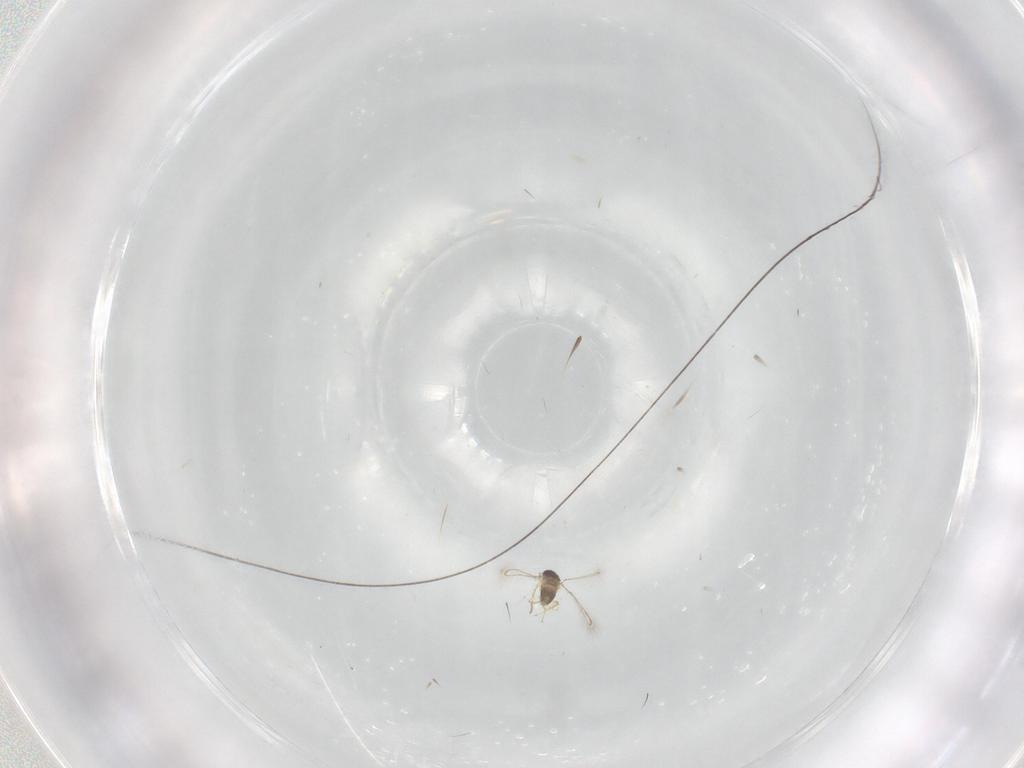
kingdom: Animalia
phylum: Arthropoda
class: Insecta
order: Hymenoptera
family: Mymaridae
